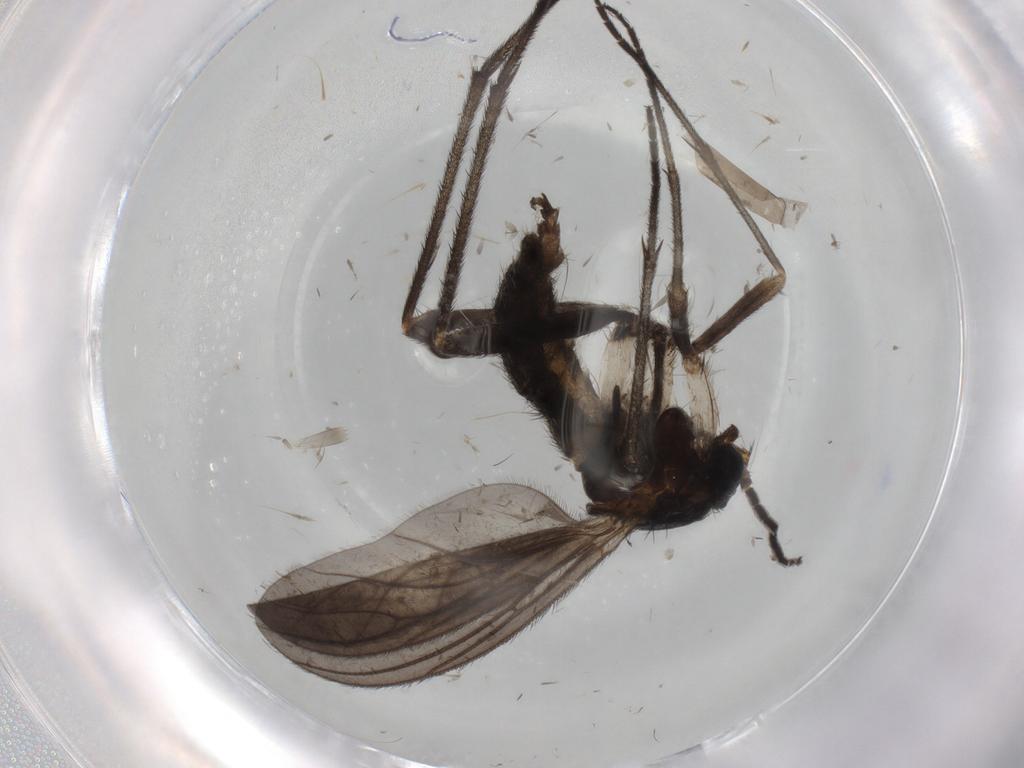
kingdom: Animalia
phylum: Arthropoda
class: Insecta
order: Diptera
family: Sciaridae
